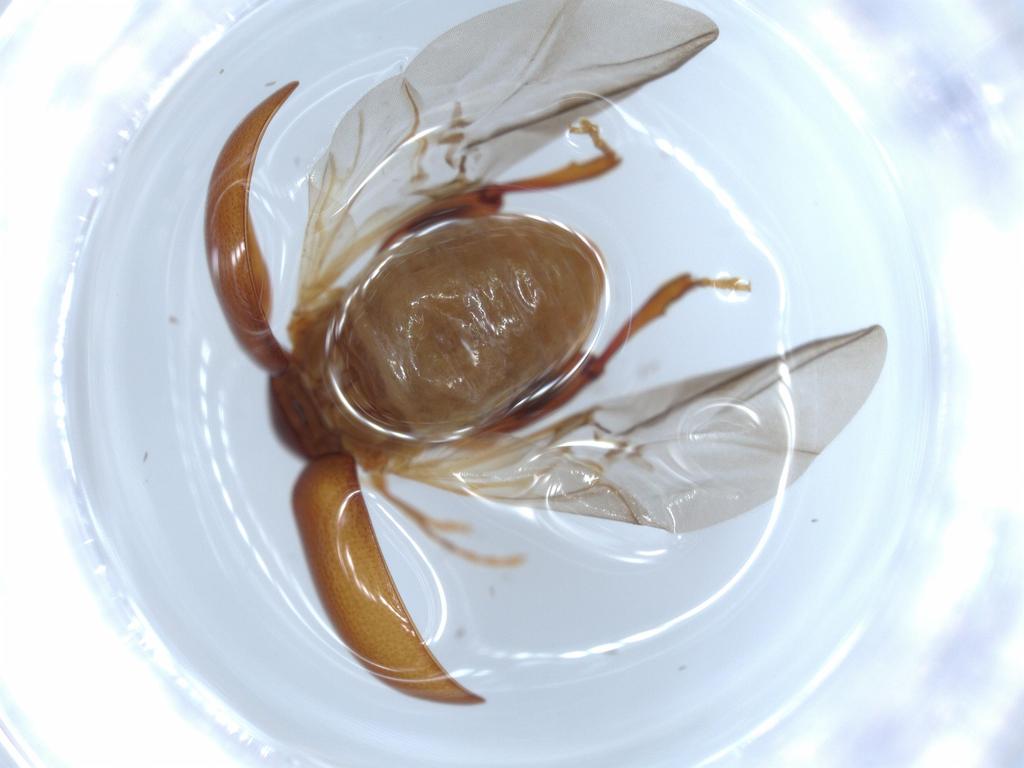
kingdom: Animalia
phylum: Arthropoda
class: Insecta
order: Coleoptera
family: Chrysomelidae
